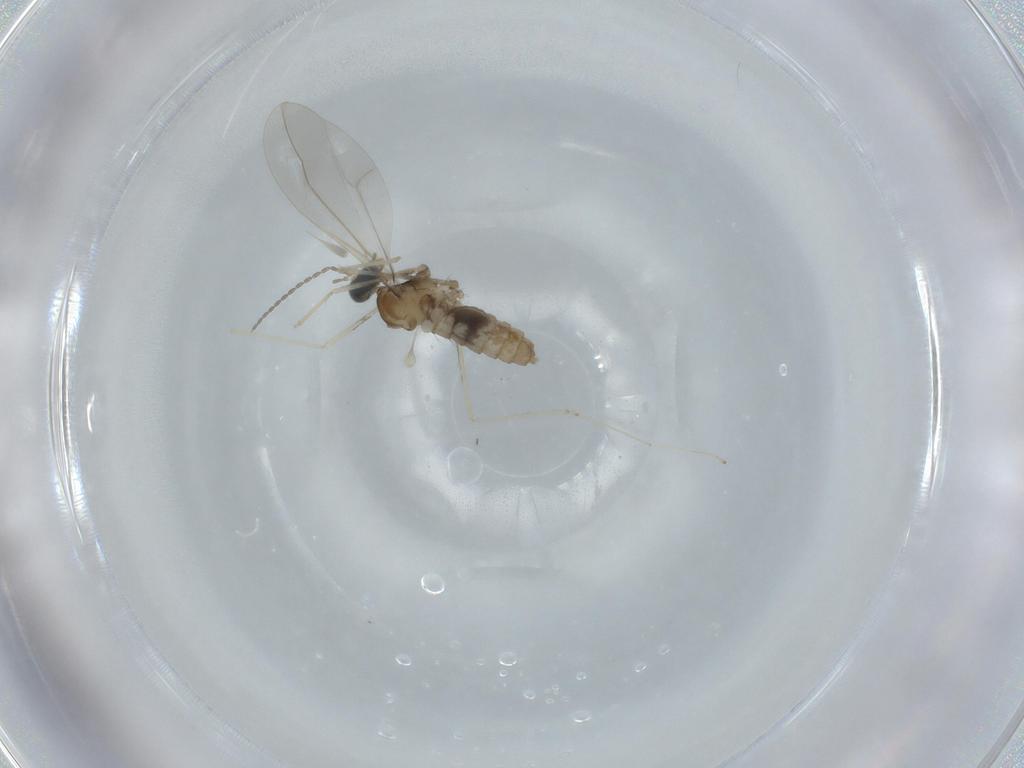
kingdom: Animalia
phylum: Arthropoda
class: Insecta
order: Diptera
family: Cecidomyiidae
